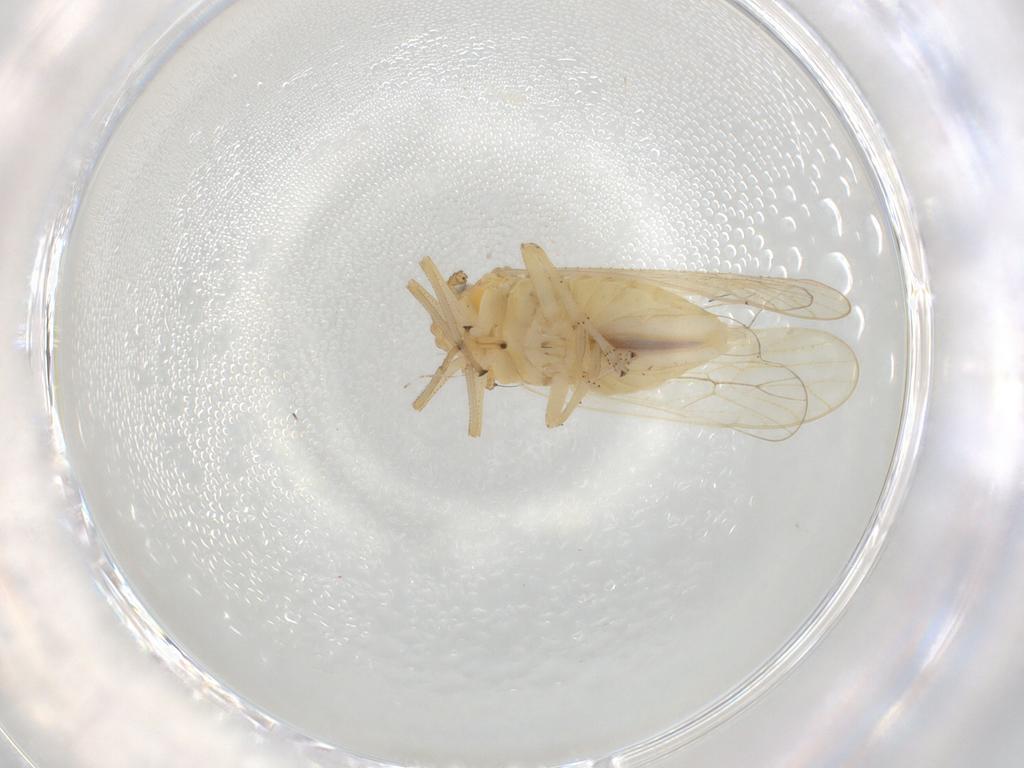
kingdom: Animalia
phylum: Arthropoda
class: Insecta
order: Hemiptera
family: Delphacidae
